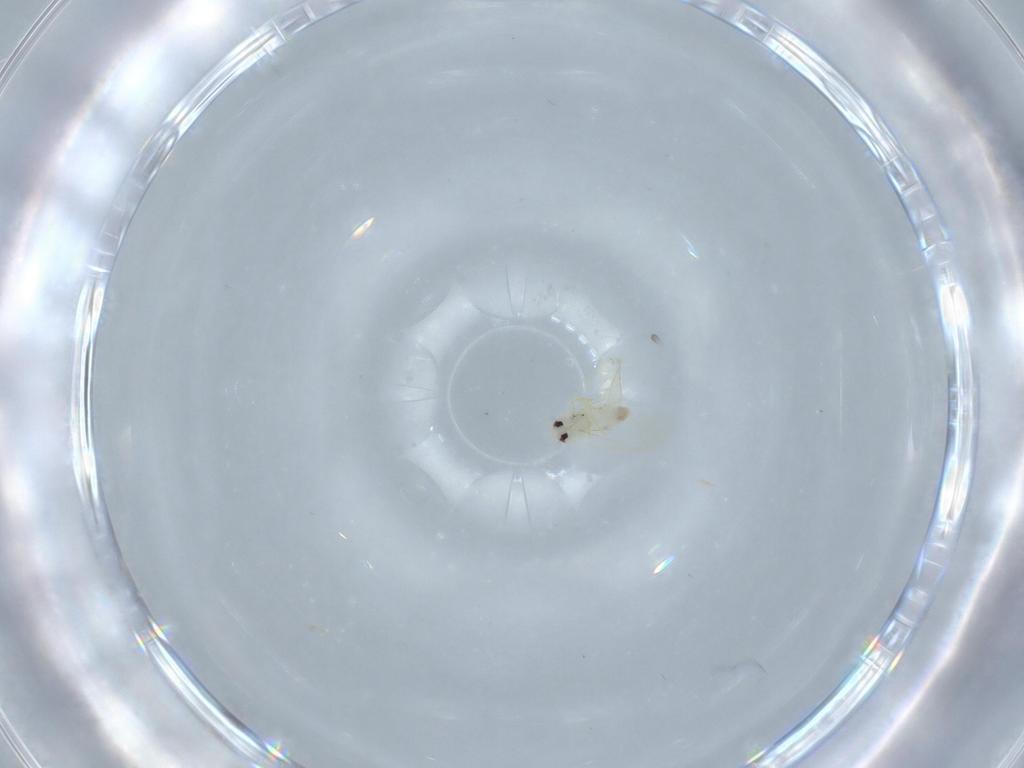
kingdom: Animalia
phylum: Arthropoda
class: Insecta
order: Hemiptera
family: Aleyrodidae
